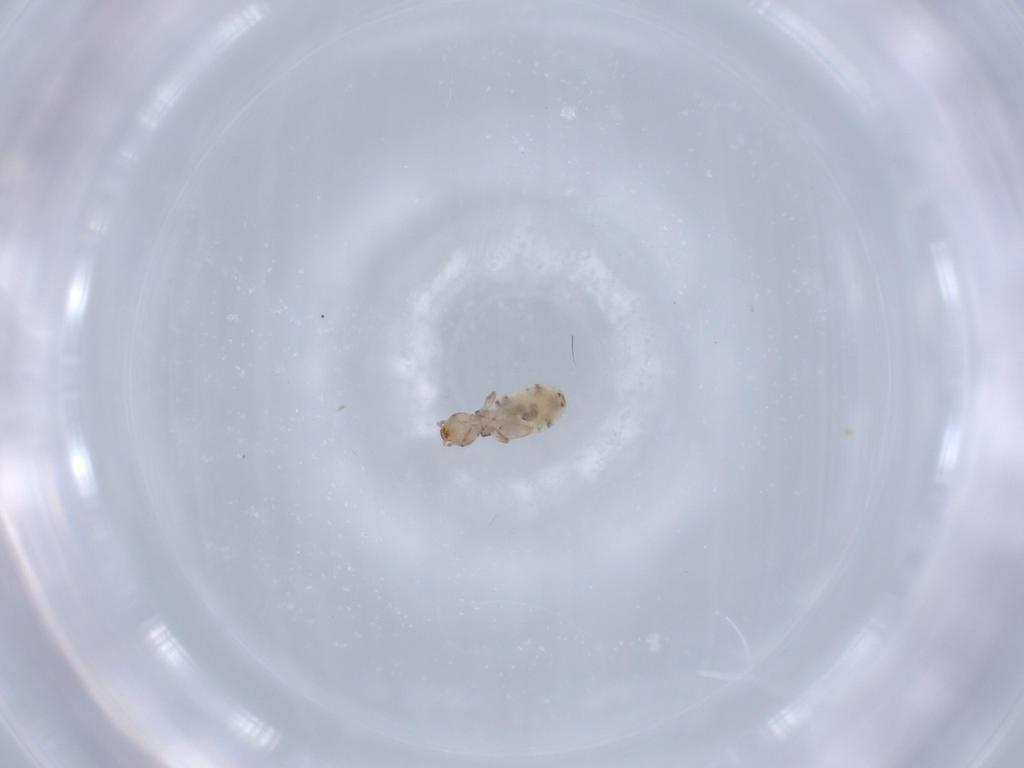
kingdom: Animalia
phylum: Arthropoda
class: Insecta
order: Psocodea
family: Liposcelididae
